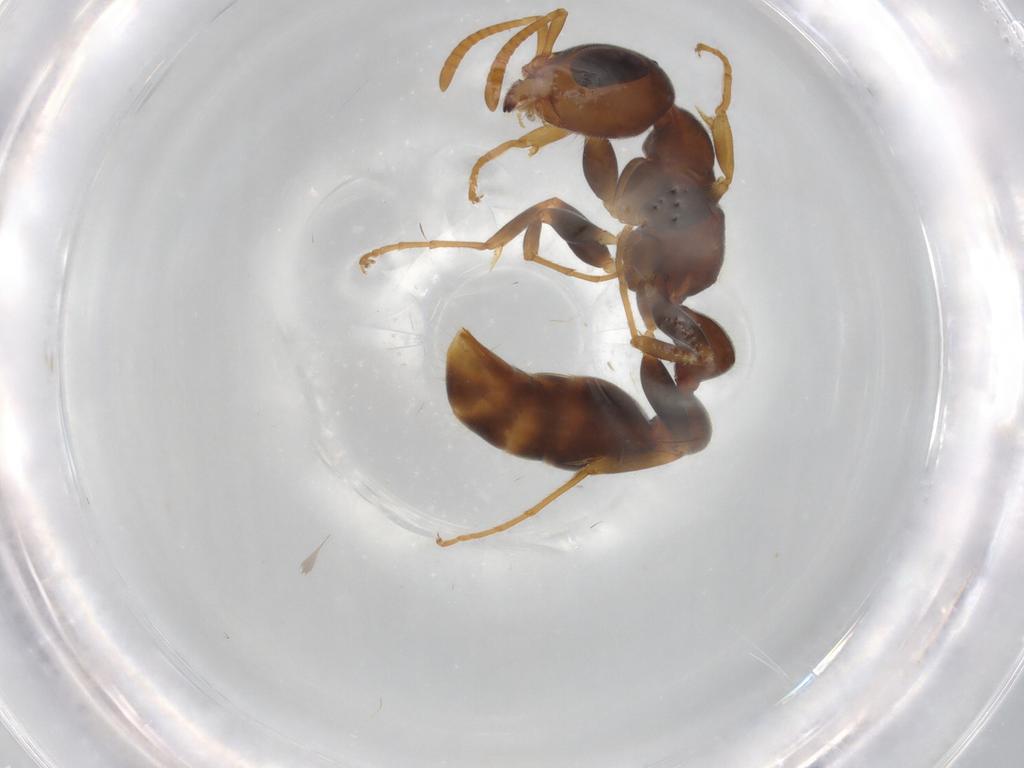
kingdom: Animalia
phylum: Arthropoda
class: Insecta
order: Hymenoptera
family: Formicidae
